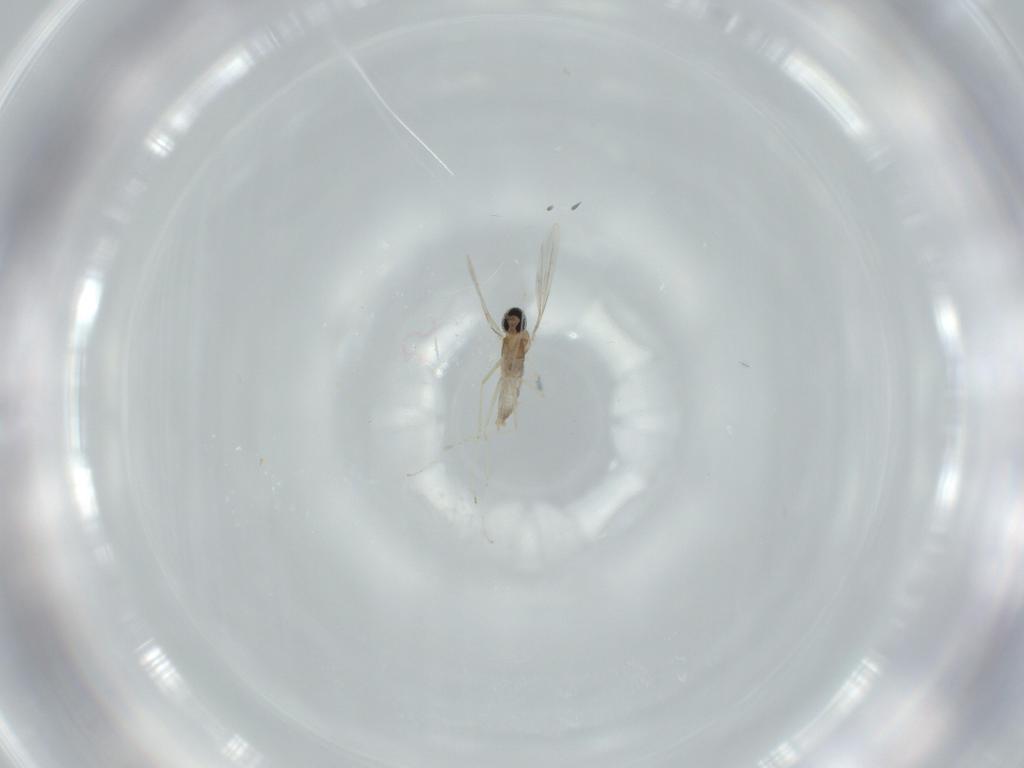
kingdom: Animalia
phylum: Arthropoda
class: Insecta
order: Diptera
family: Cecidomyiidae
